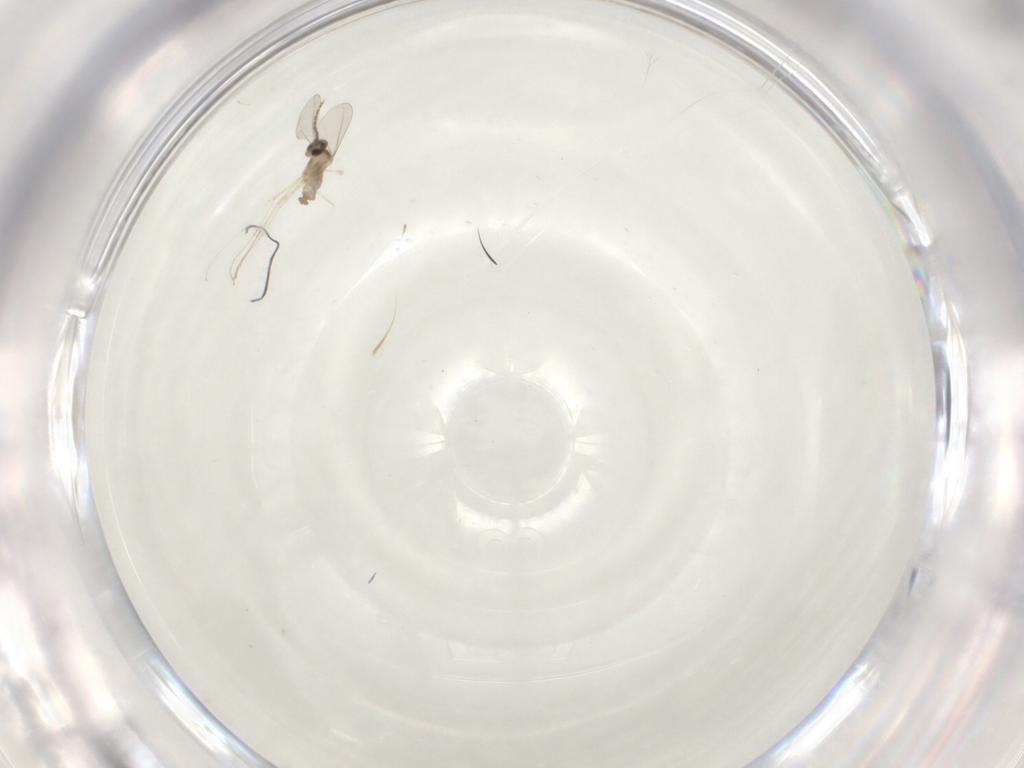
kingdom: Animalia
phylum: Arthropoda
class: Insecta
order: Diptera
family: Cecidomyiidae
